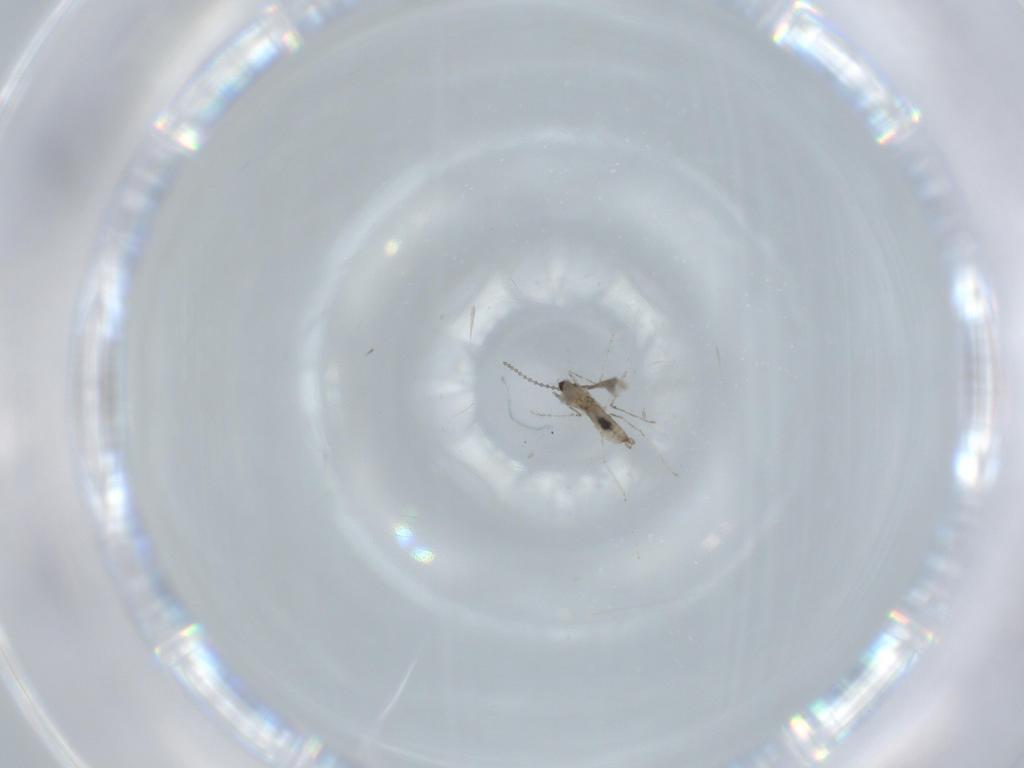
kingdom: Animalia
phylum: Arthropoda
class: Insecta
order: Diptera
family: Cecidomyiidae
